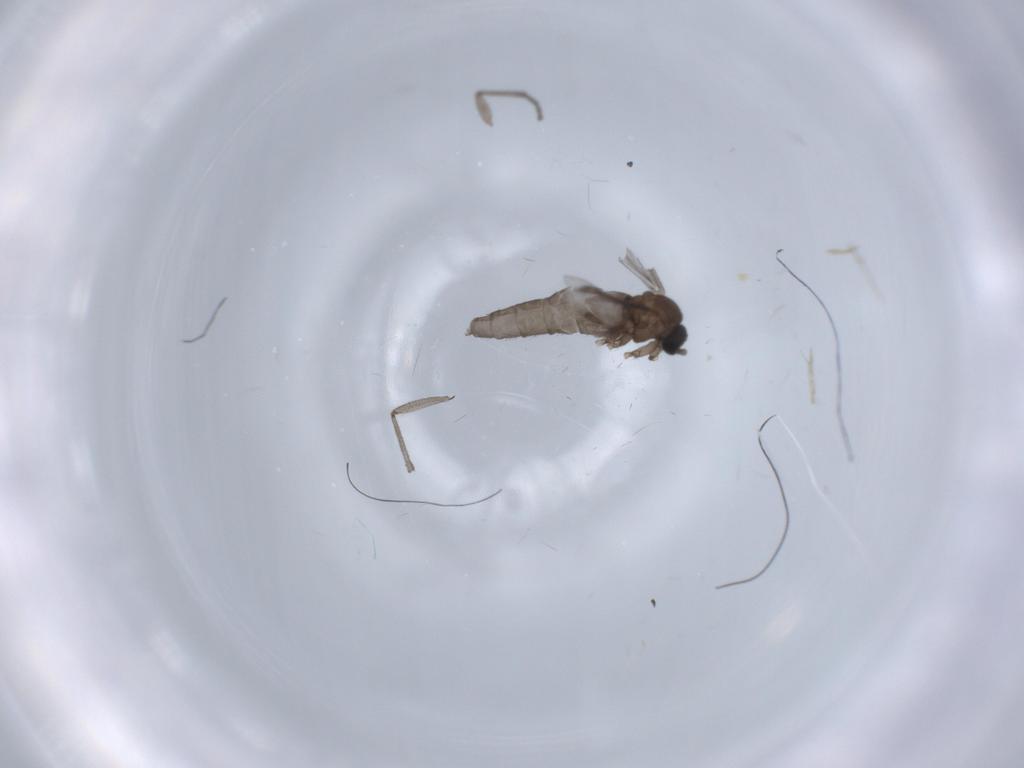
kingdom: Animalia
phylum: Arthropoda
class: Insecta
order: Diptera
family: Sciaridae
